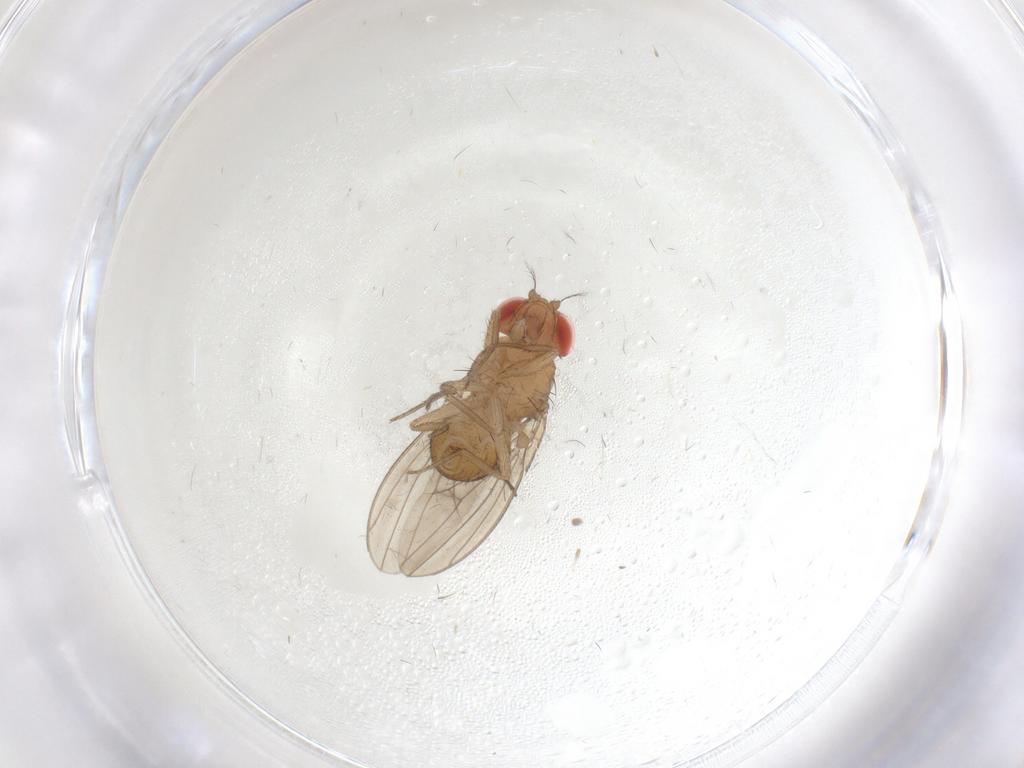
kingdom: Animalia
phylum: Arthropoda
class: Insecta
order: Diptera
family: Drosophilidae
